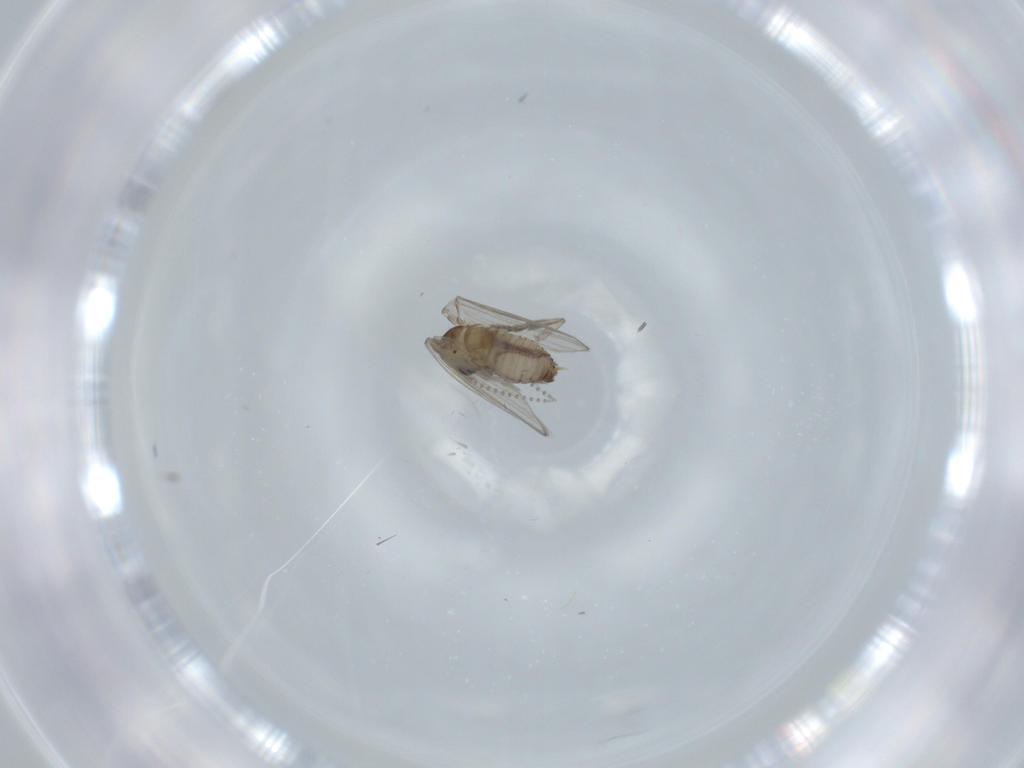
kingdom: Animalia
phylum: Arthropoda
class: Insecta
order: Diptera
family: Psychodidae
